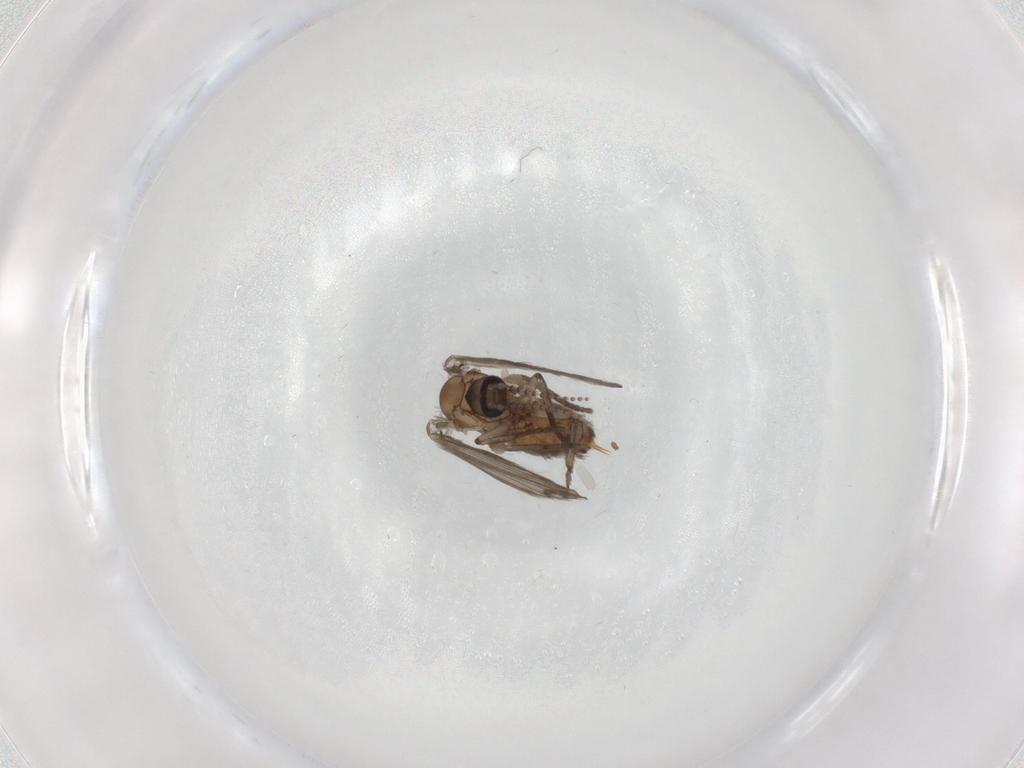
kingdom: Animalia
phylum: Arthropoda
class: Insecta
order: Diptera
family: Psychodidae
